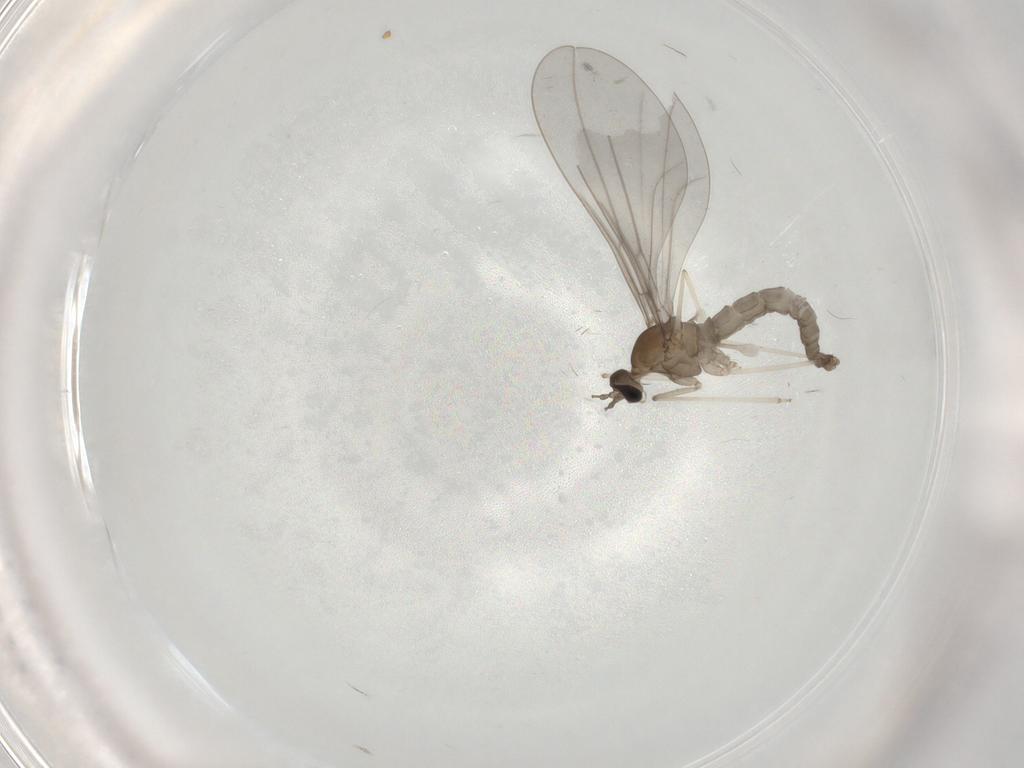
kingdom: Animalia
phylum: Arthropoda
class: Insecta
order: Diptera
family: Cecidomyiidae
